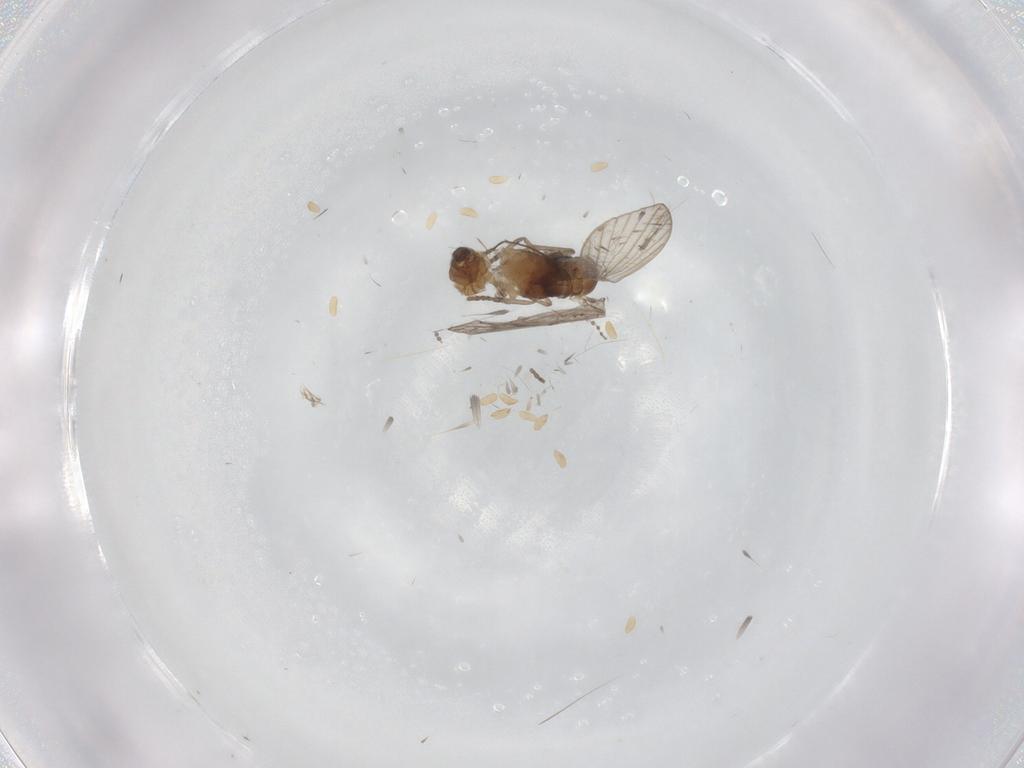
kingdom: Animalia
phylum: Arthropoda
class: Insecta
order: Diptera
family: Psychodidae
